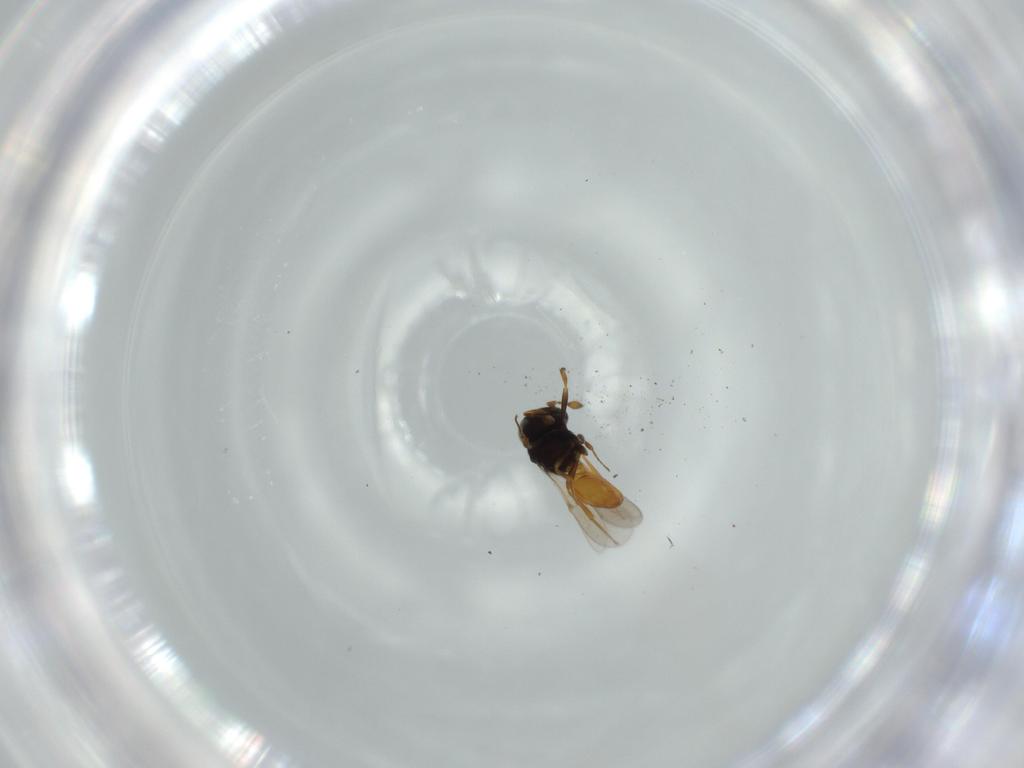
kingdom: Animalia
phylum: Arthropoda
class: Insecta
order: Hymenoptera
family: Scelionidae
